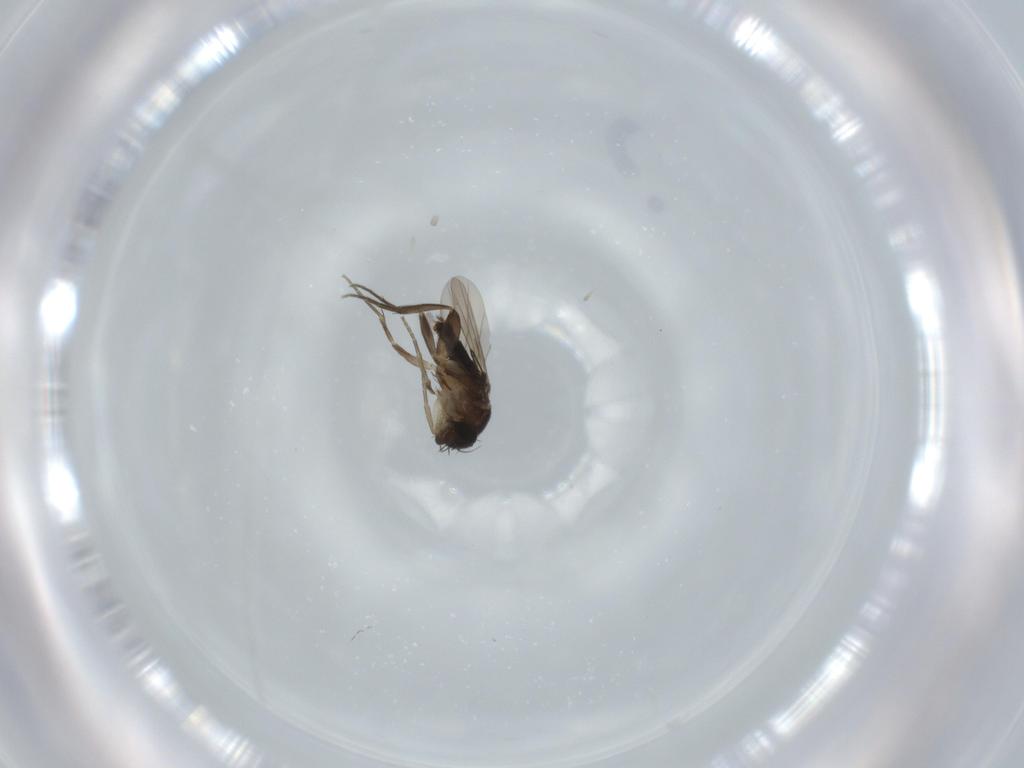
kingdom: Animalia
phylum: Arthropoda
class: Insecta
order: Diptera
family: Phoridae
